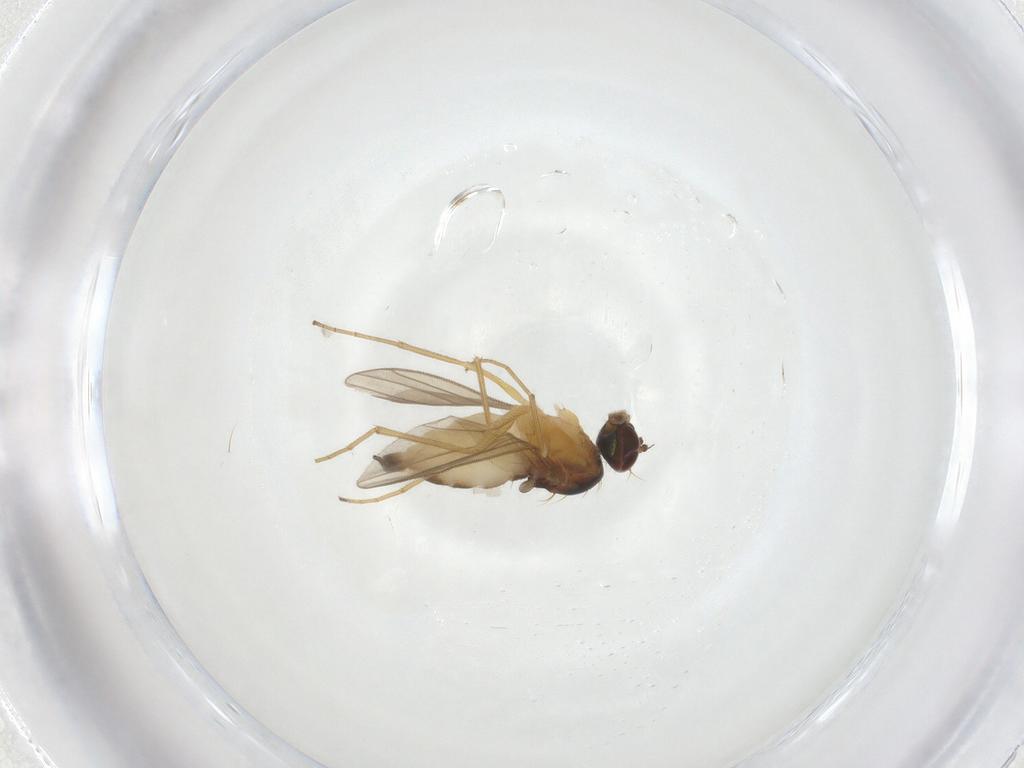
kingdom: Animalia
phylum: Arthropoda
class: Insecta
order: Diptera
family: Dolichopodidae
